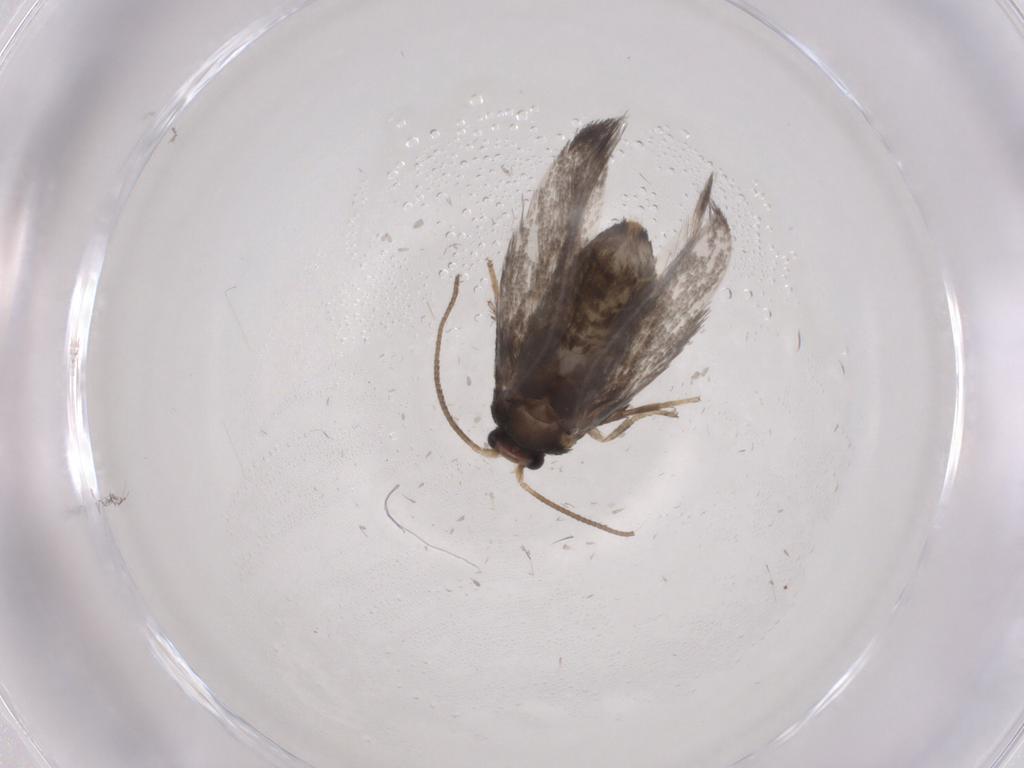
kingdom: Animalia
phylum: Arthropoda
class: Insecta
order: Lepidoptera
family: Nepticulidae
